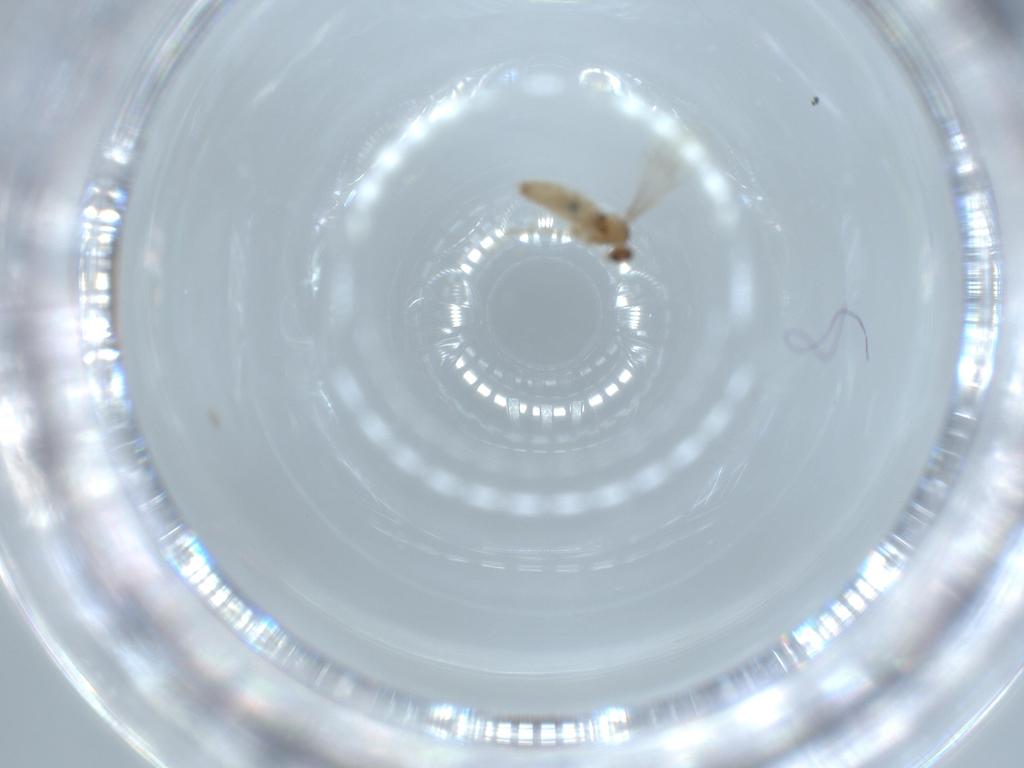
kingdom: Animalia
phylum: Arthropoda
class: Insecta
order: Diptera
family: Cecidomyiidae
